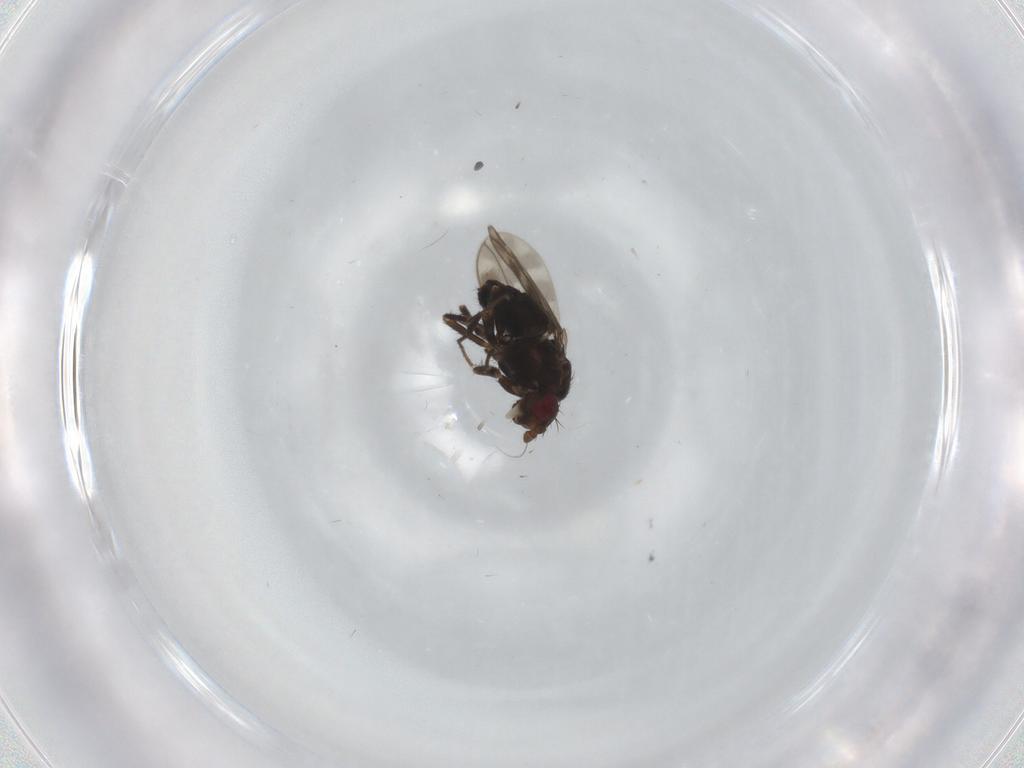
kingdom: Animalia
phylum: Arthropoda
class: Insecta
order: Diptera
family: Sphaeroceridae
